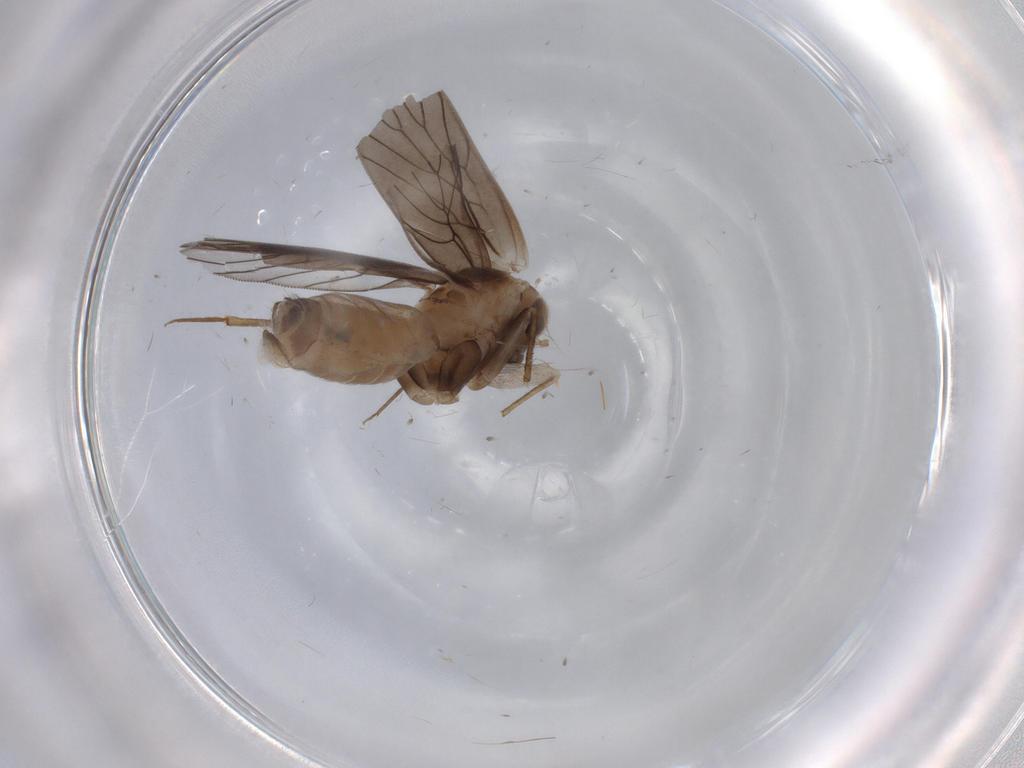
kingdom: Animalia
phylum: Arthropoda
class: Insecta
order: Psocodea
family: Lepidopsocidae
